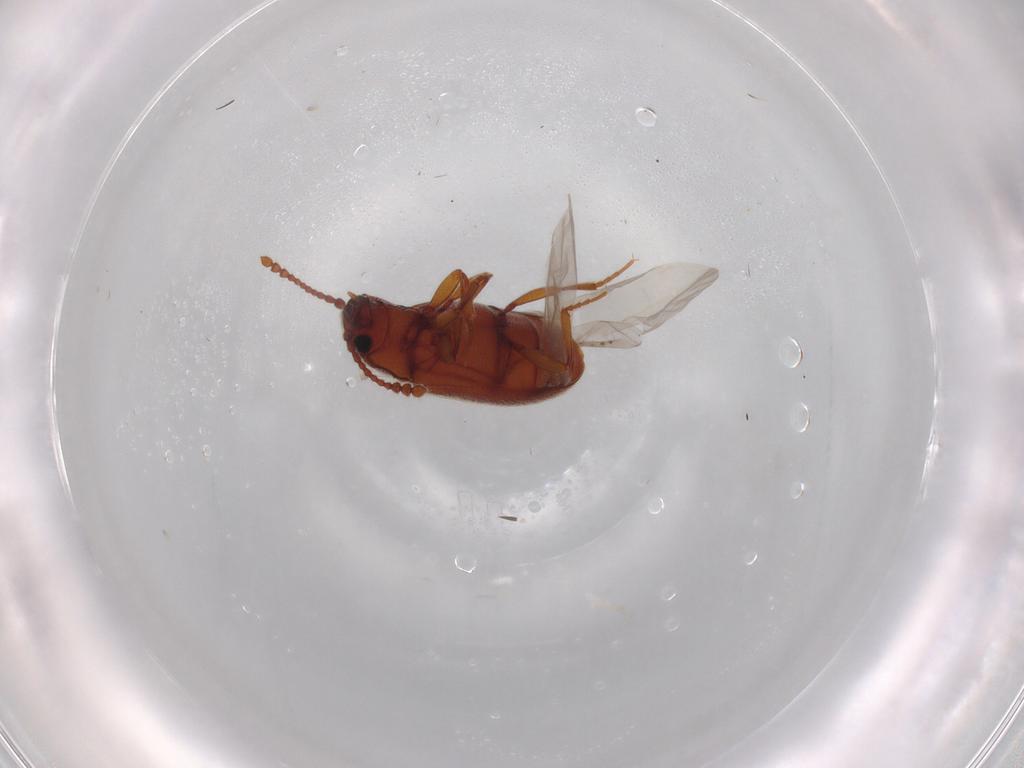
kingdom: Animalia
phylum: Arthropoda
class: Insecta
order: Coleoptera
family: Cryptophagidae
